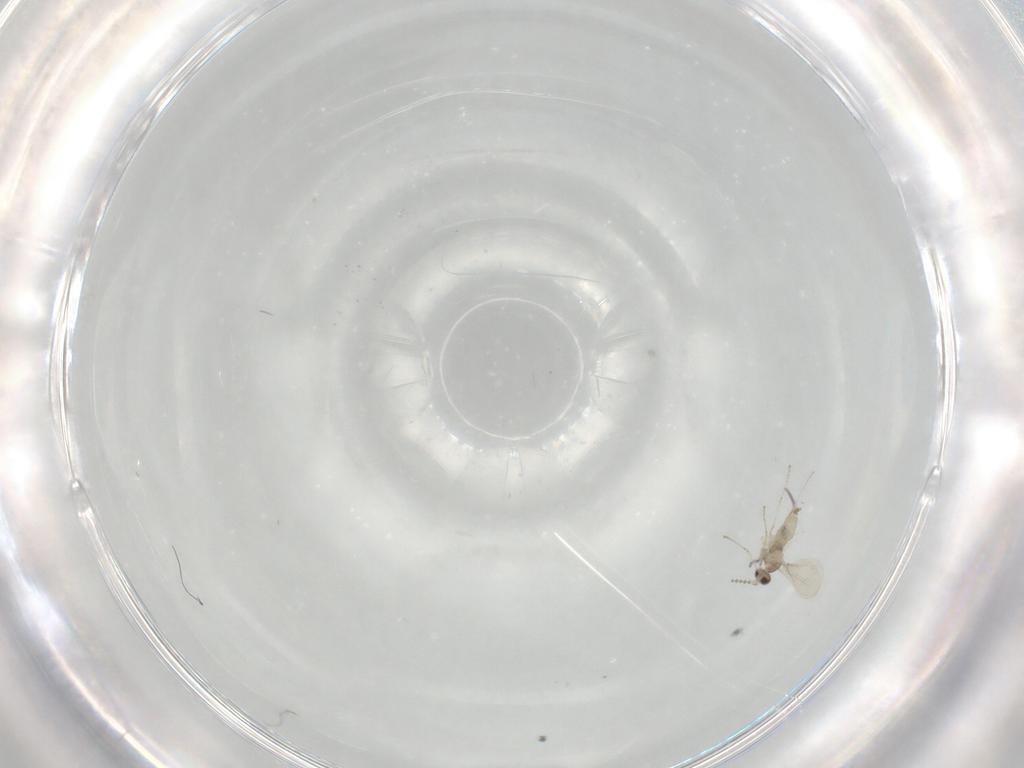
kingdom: Animalia
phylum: Arthropoda
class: Insecta
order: Diptera
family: Cecidomyiidae
